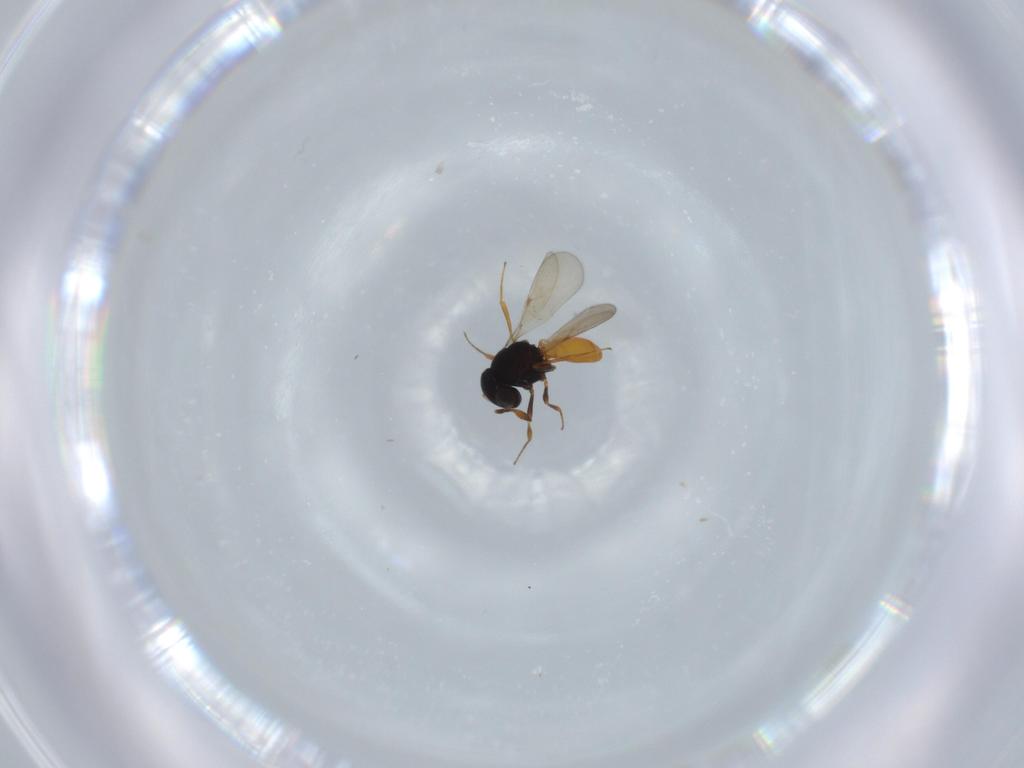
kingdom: Animalia
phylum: Arthropoda
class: Insecta
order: Hymenoptera
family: Scelionidae
